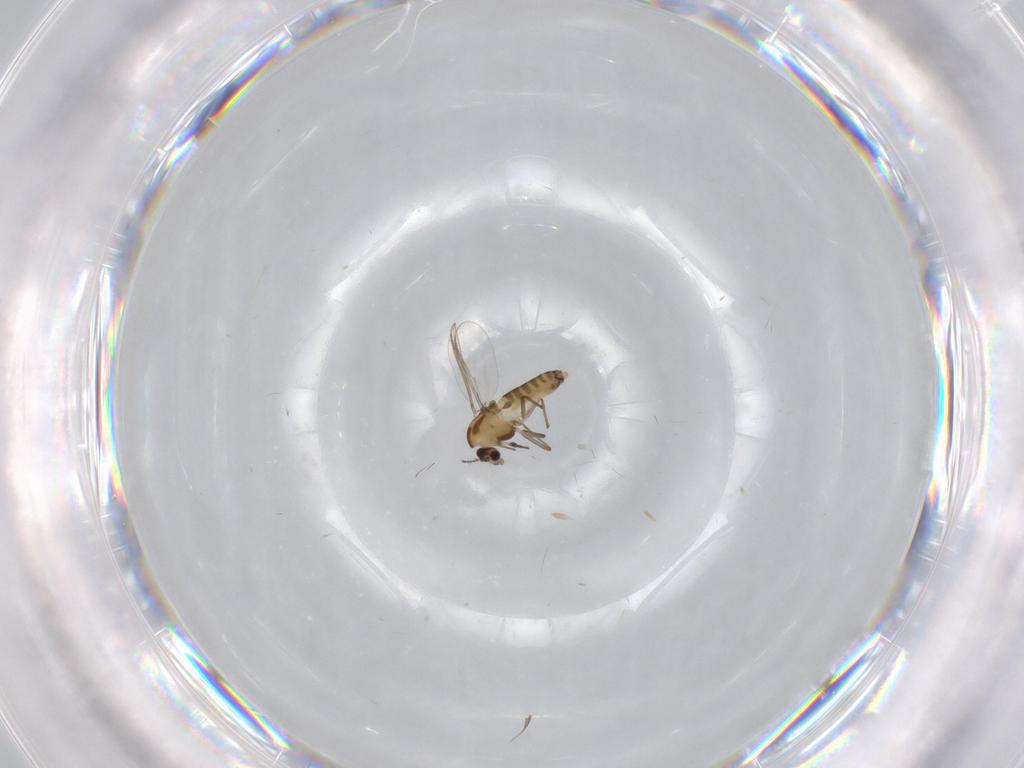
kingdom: Animalia
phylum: Arthropoda
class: Insecta
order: Diptera
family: Chironomidae
